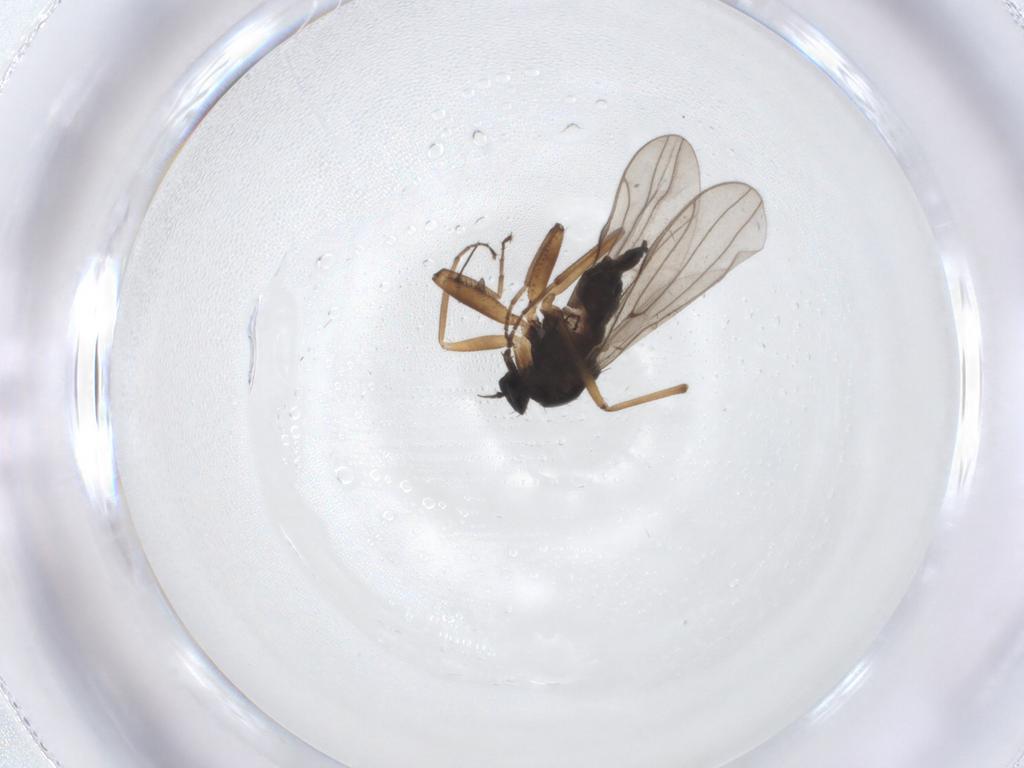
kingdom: Animalia
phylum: Arthropoda
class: Insecta
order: Diptera
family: Hybotidae
